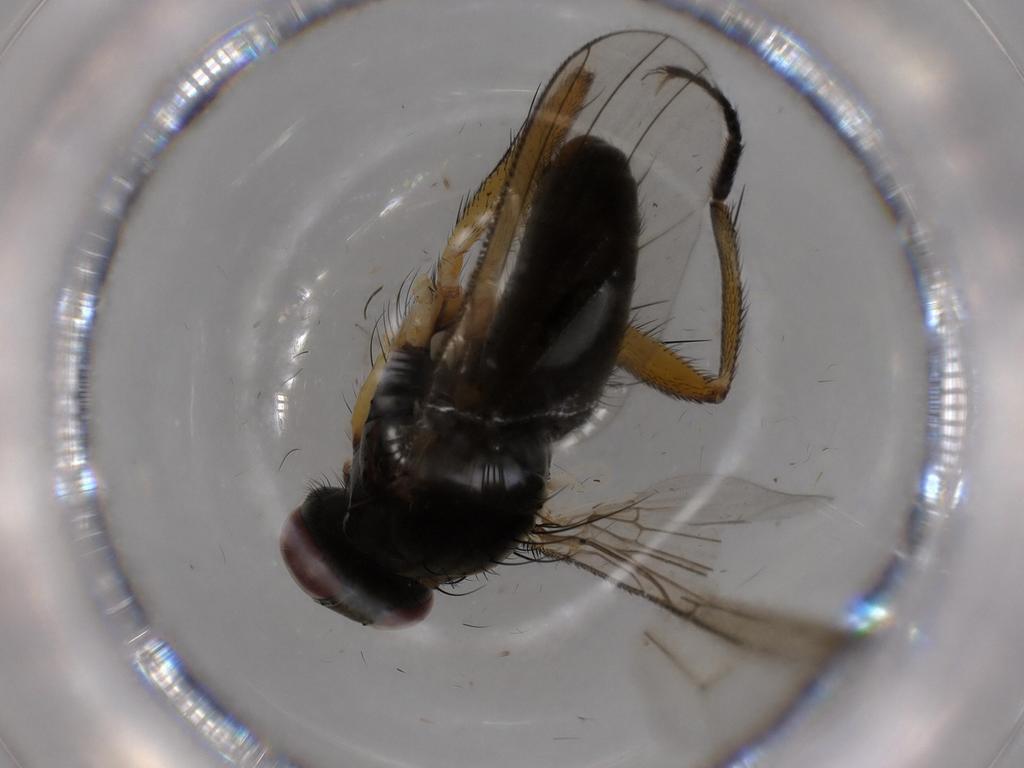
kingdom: Animalia
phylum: Arthropoda
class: Insecta
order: Diptera
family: Muscidae
